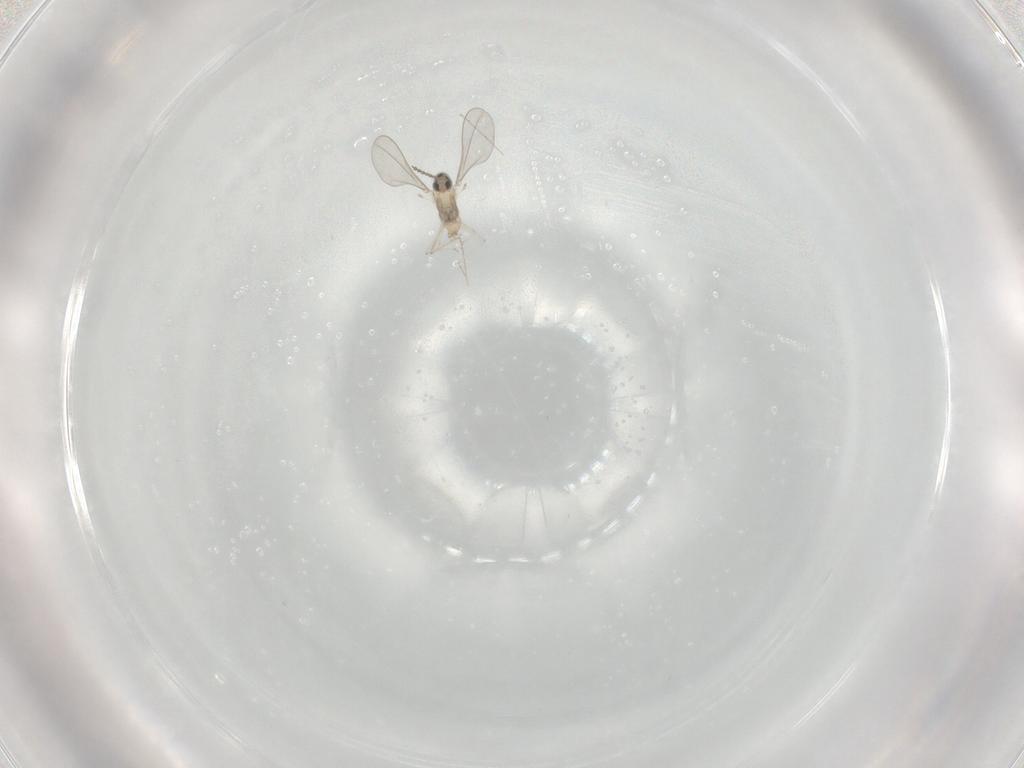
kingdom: Animalia
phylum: Arthropoda
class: Insecta
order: Diptera
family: Cecidomyiidae
